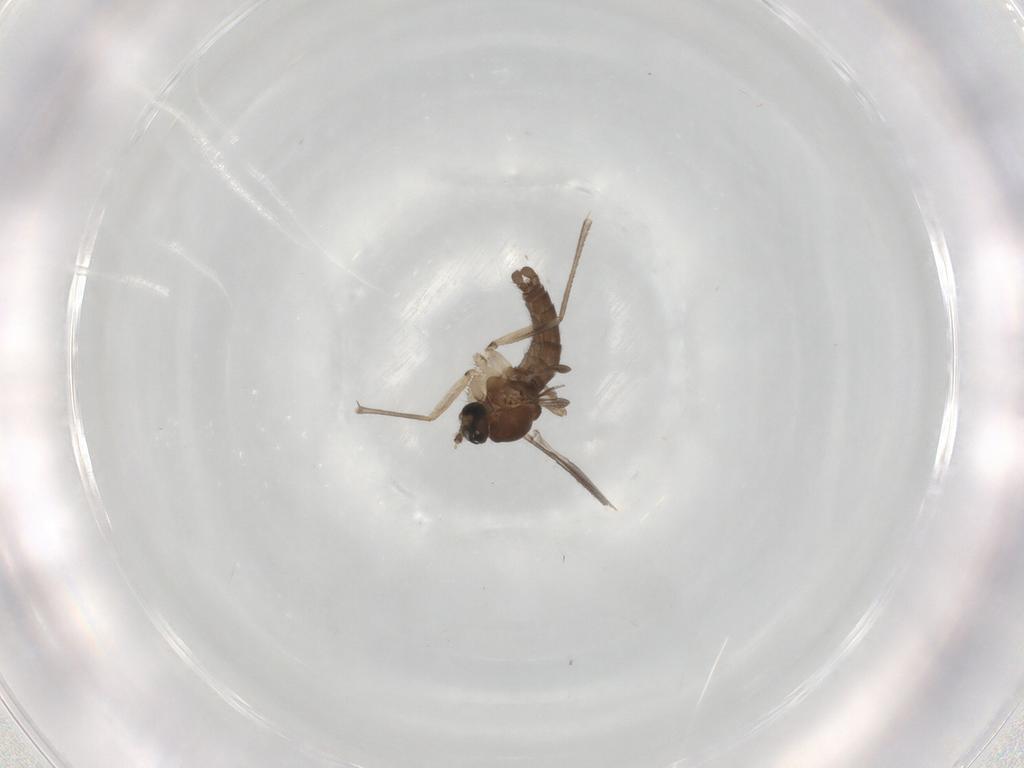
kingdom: Animalia
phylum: Arthropoda
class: Insecta
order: Diptera
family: Sciaridae
